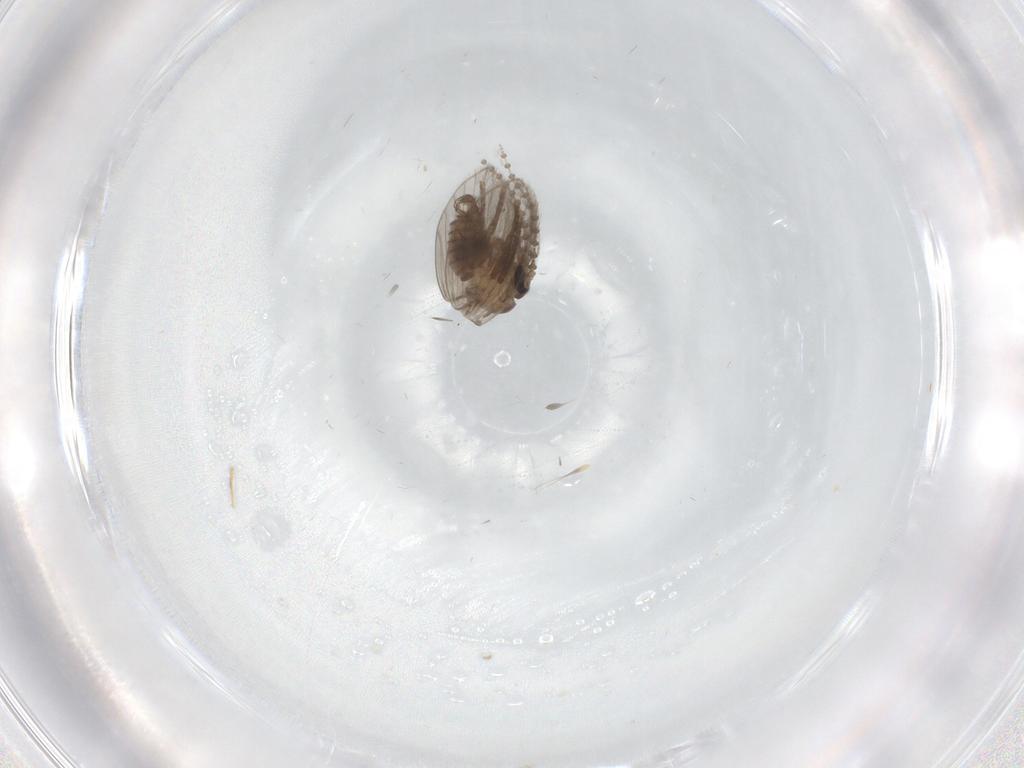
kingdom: Animalia
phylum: Arthropoda
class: Insecta
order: Diptera
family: Psychodidae
